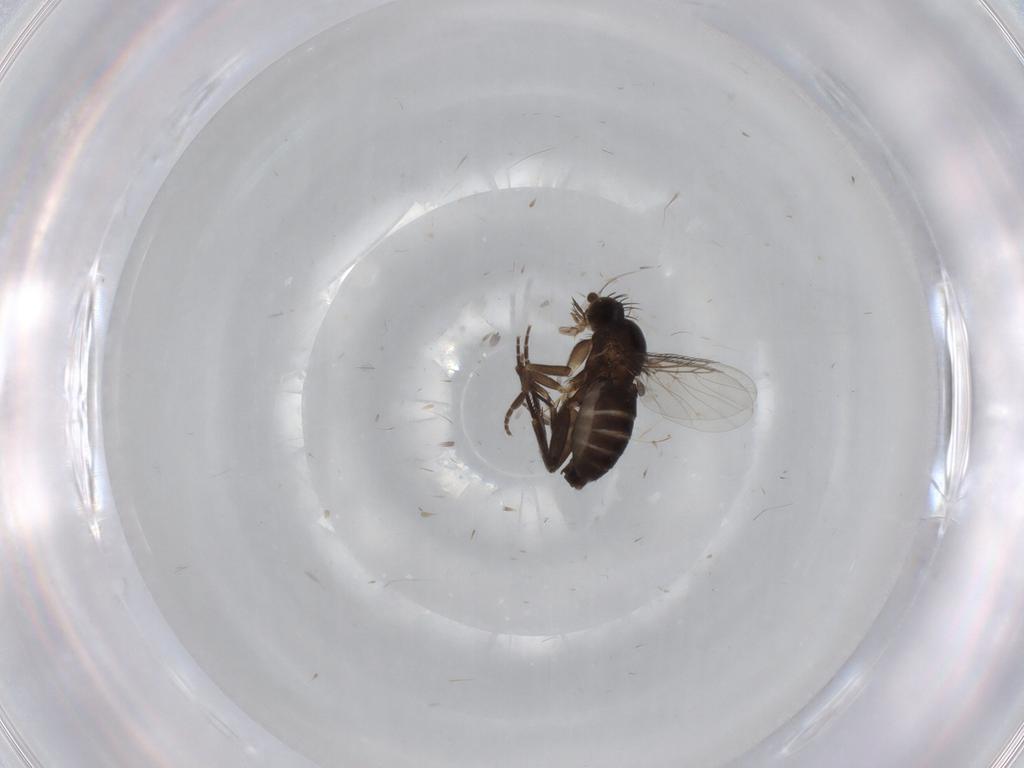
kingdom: Animalia
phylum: Arthropoda
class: Insecta
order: Diptera
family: Phoridae
